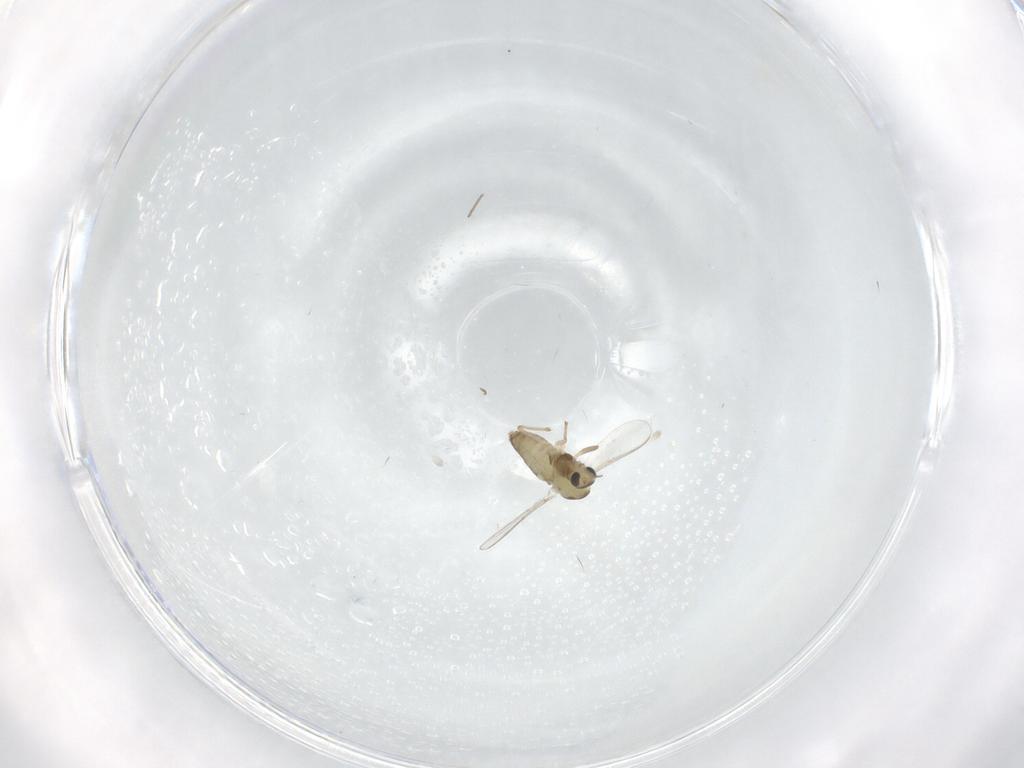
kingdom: Animalia
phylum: Arthropoda
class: Insecta
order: Diptera
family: Chironomidae
